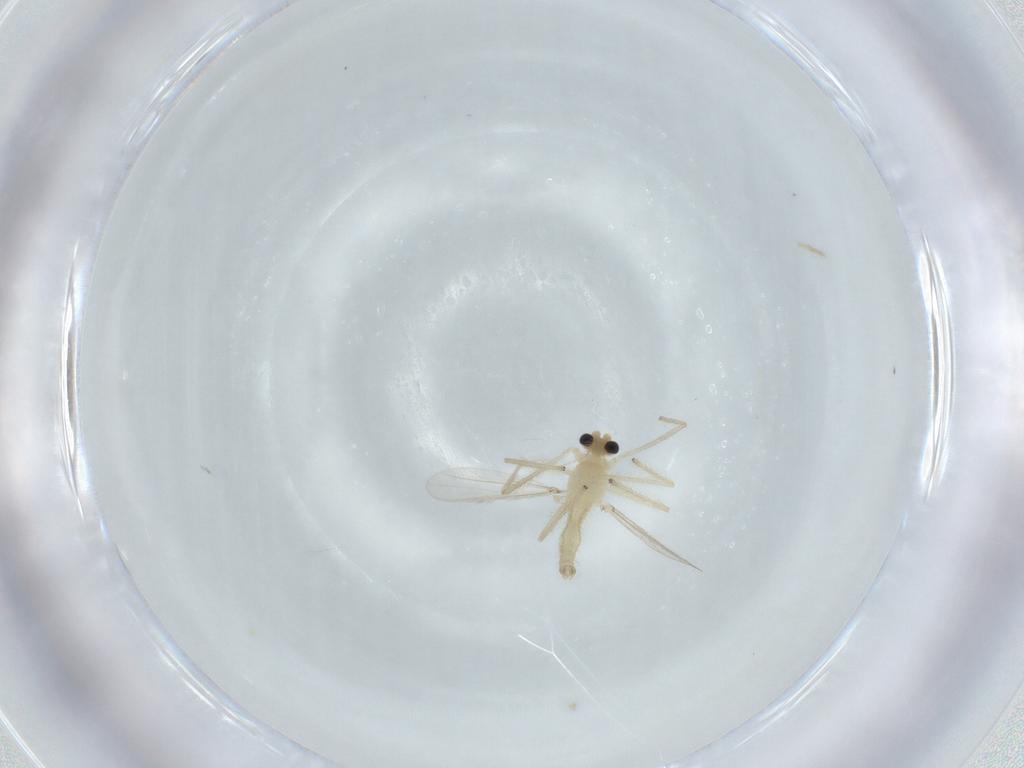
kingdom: Animalia
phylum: Arthropoda
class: Insecta
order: Diptera
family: Chironomidae
